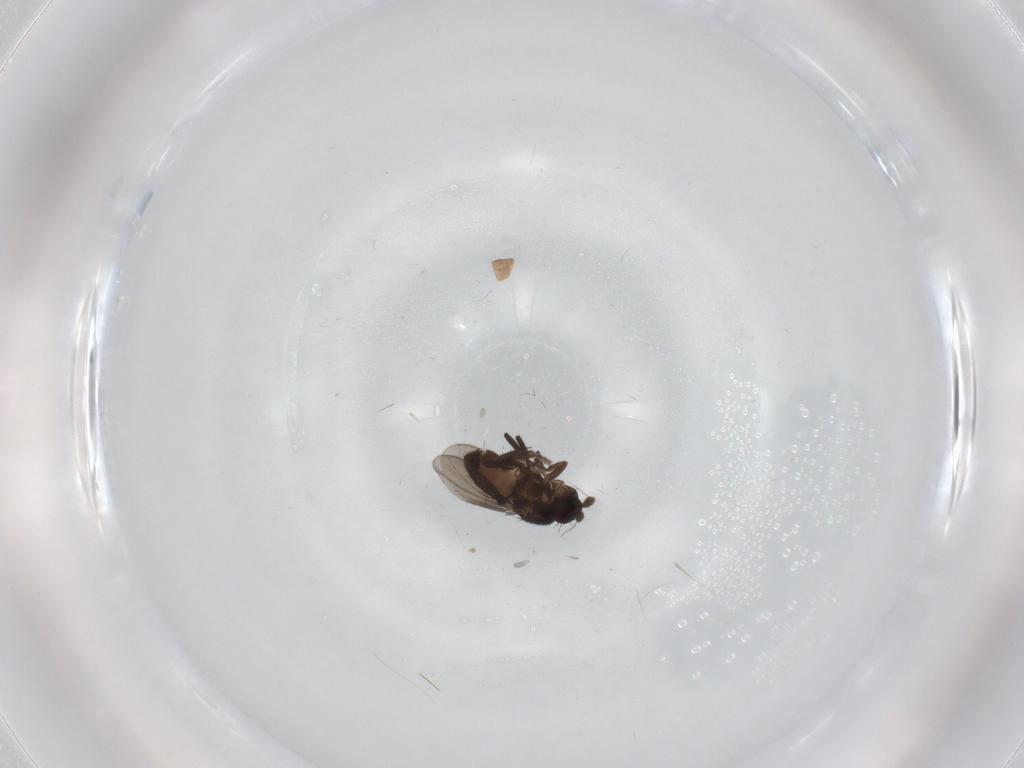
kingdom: Animalia
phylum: Arthropoda
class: Insecta
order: Diptera
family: Sphaeroceridae
